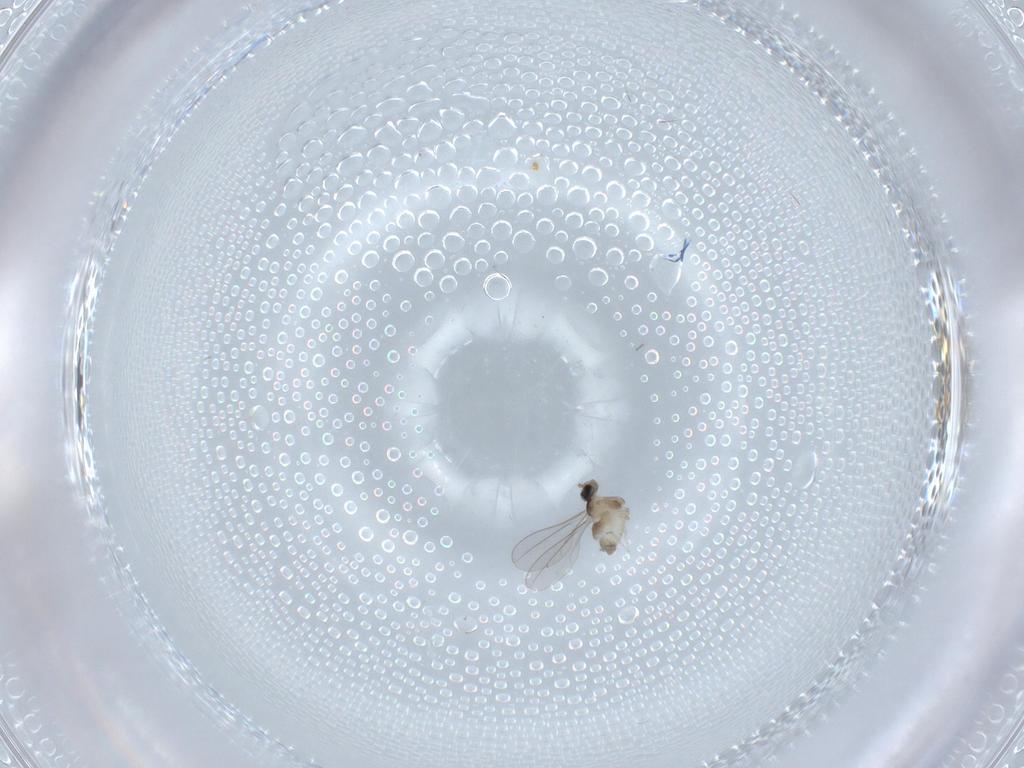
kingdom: Animalia
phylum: Arthropoda
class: Insecta
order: Diptera
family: Cecidomyiidae
